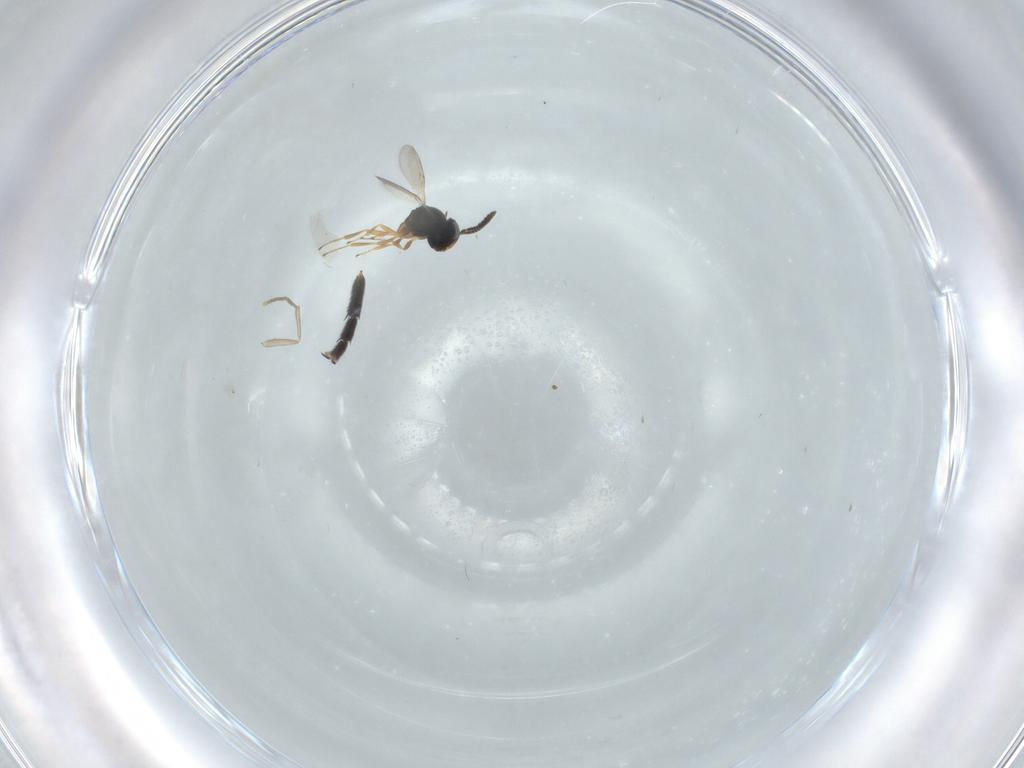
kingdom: Animalia
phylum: Arthropoda
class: Insecta
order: Hymenoptera
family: Scelionidae
